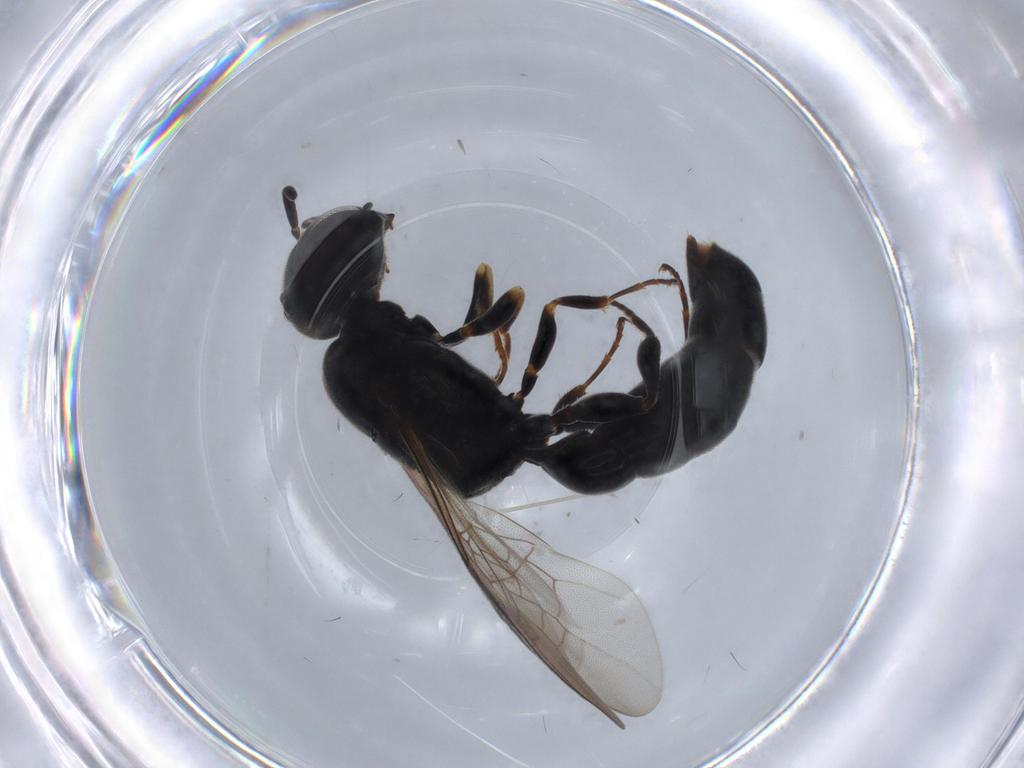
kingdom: Animalia
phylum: Arthropoda
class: Insecta
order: Hymenoptera
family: Pemphredonidae
